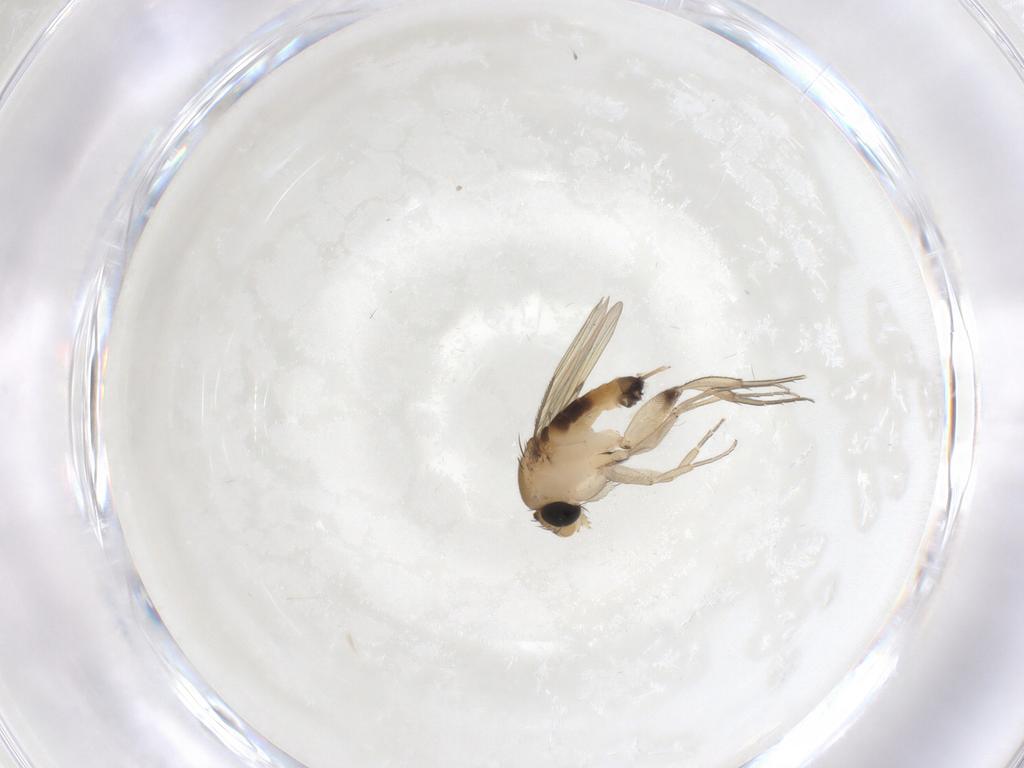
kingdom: Animalia
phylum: Arthropoda
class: Insecta
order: Diptera
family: Phoridae
